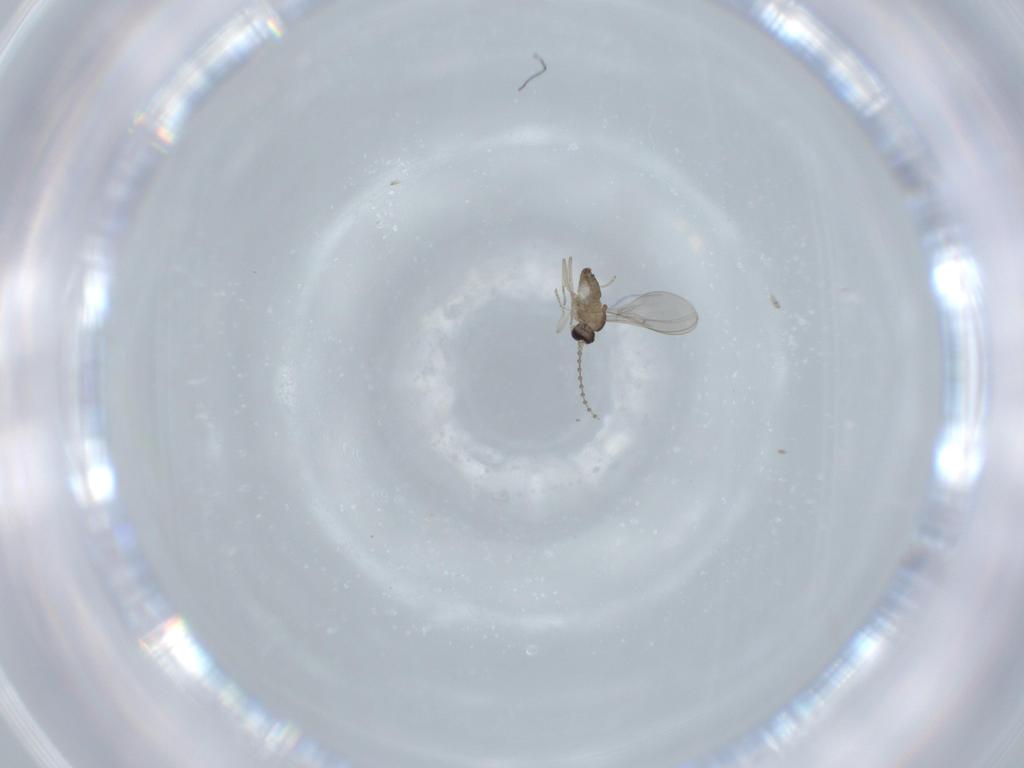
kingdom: Animalia
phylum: Arthropoda
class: Insecta
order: Diptera
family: Cecidomyiidae
